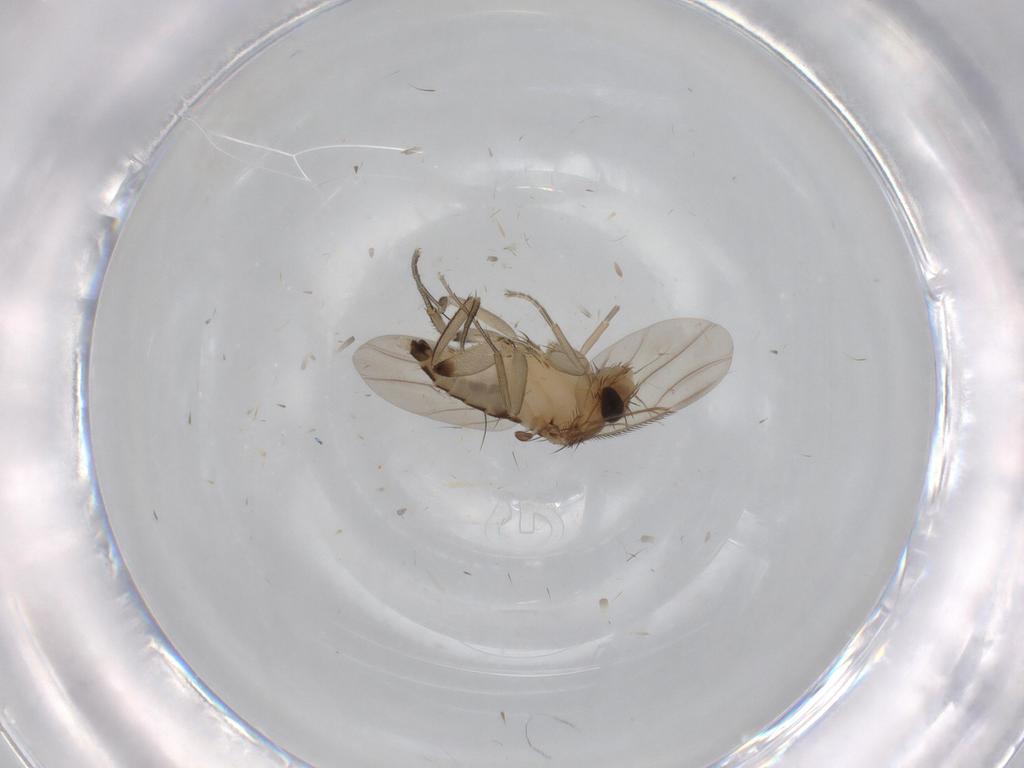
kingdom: Animalia
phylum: Arthropoda
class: Insecta
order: Diptera
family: Phoridae
